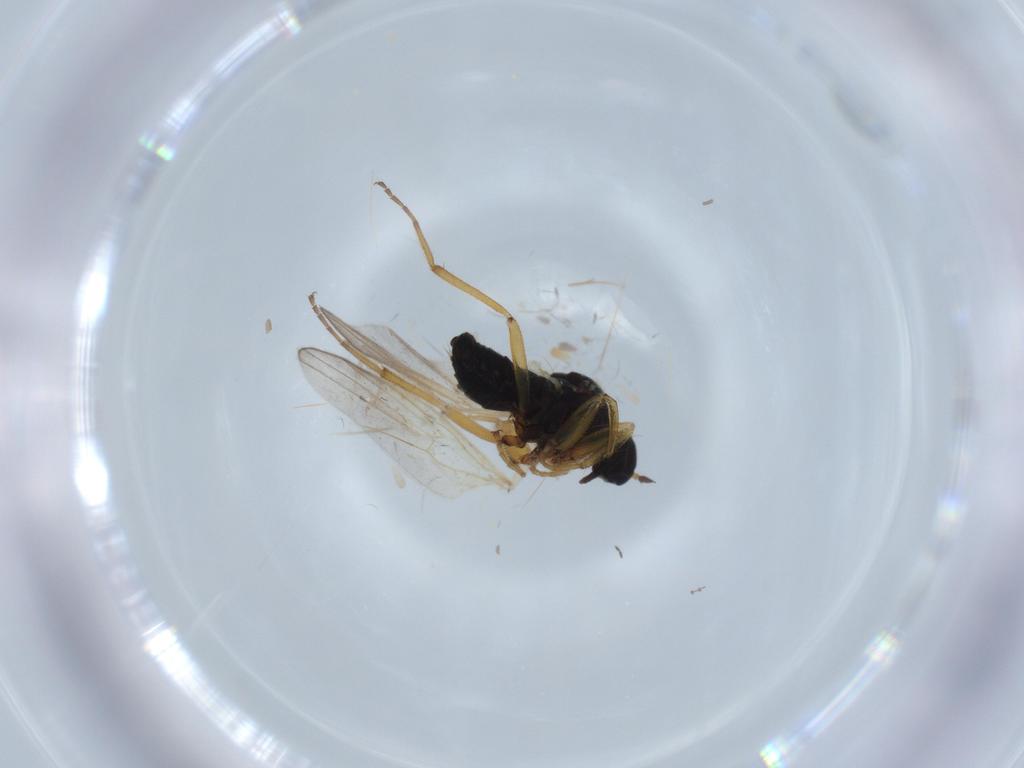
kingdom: Animalia
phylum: Arthropoda
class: Insecta
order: Diptera
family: Hybotidae
